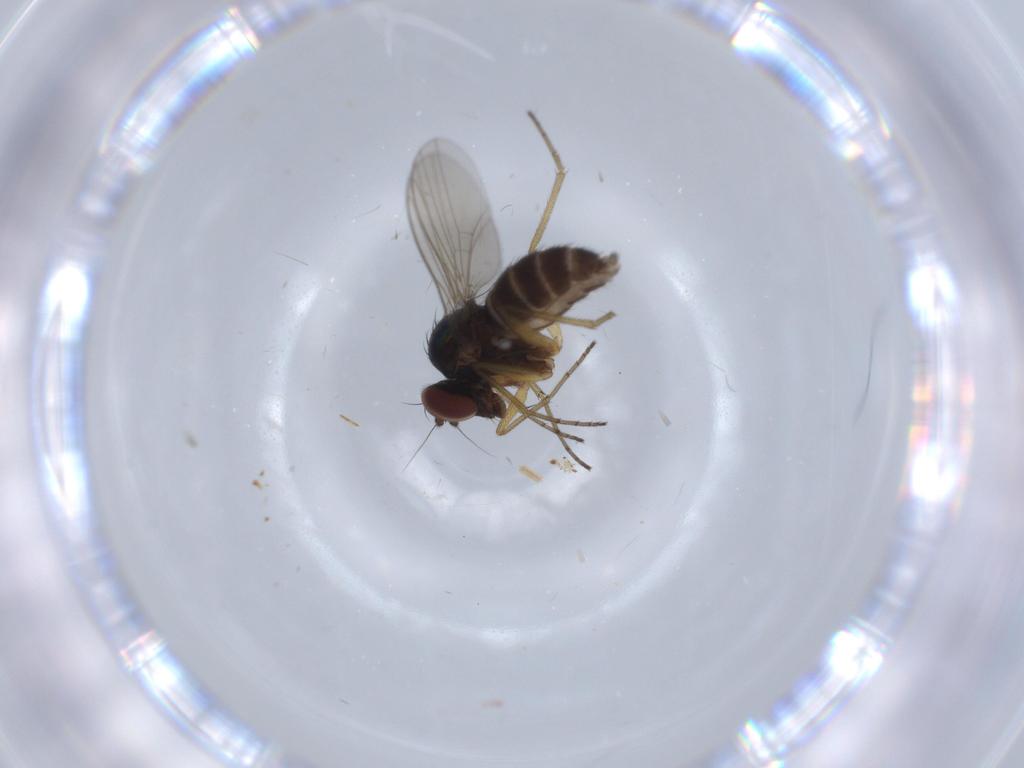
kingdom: Animalia
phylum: Arthropoda
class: Insecta
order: Diptera
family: Dolichopodidae
